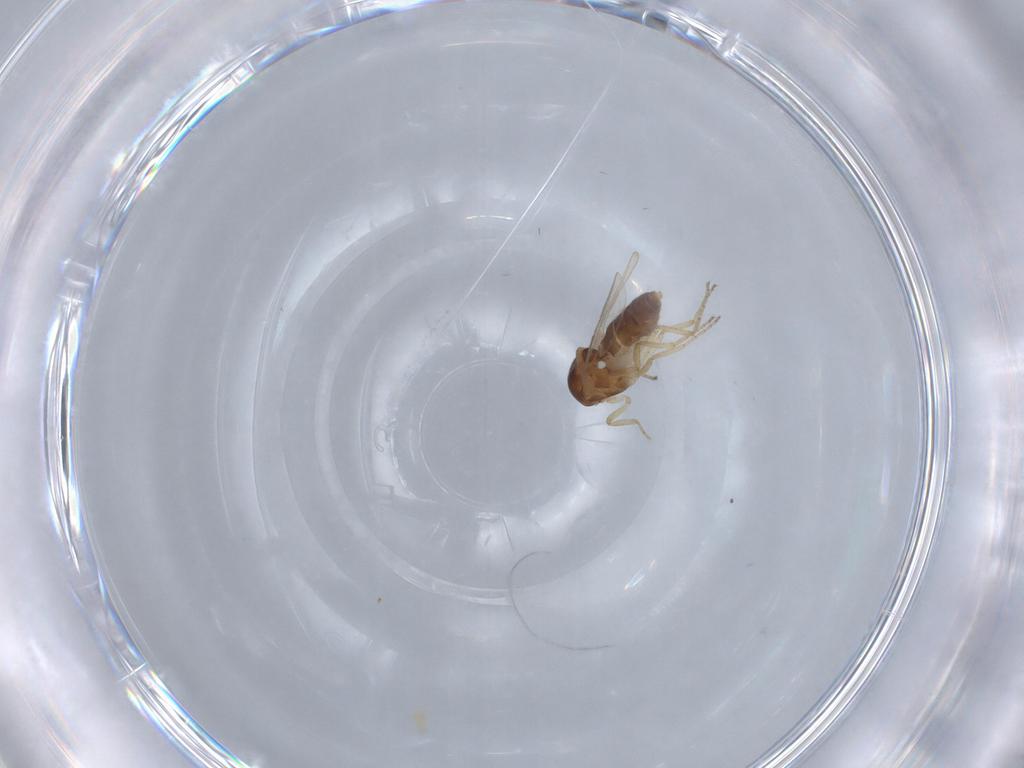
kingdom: Animalia
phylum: Arthropoda
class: Insecta
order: Diptera
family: Ceratopogonidae
